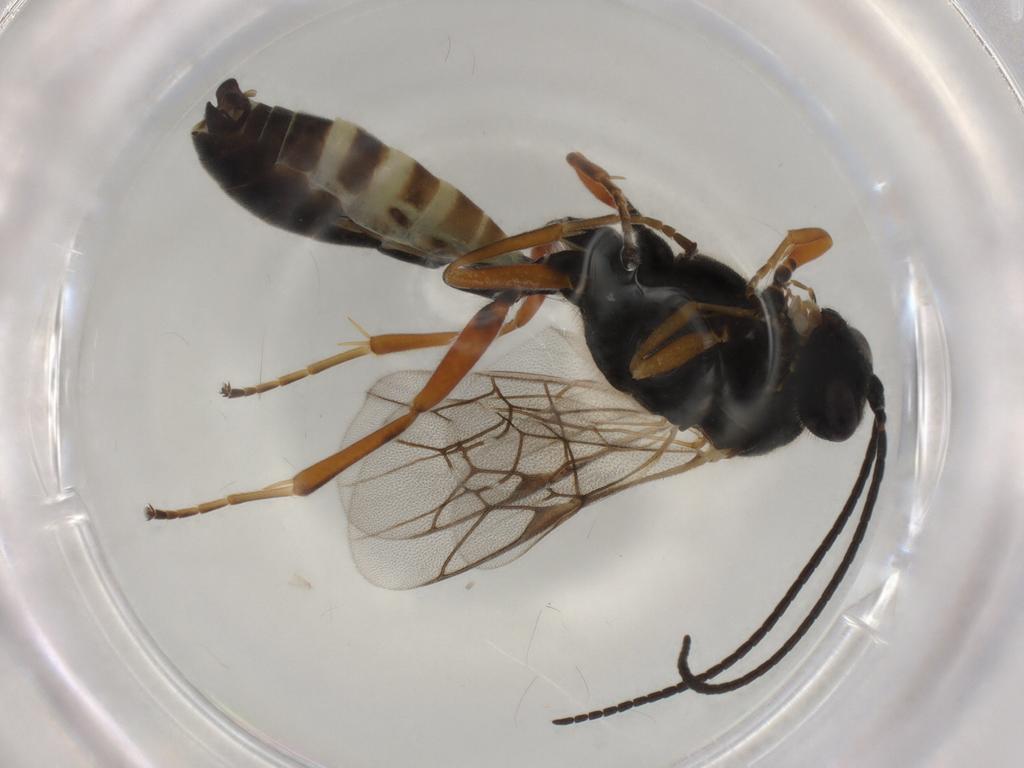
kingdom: Animalia
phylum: Arthropoda
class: Insecta
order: Hymenoptera
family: Ichneumonidae
